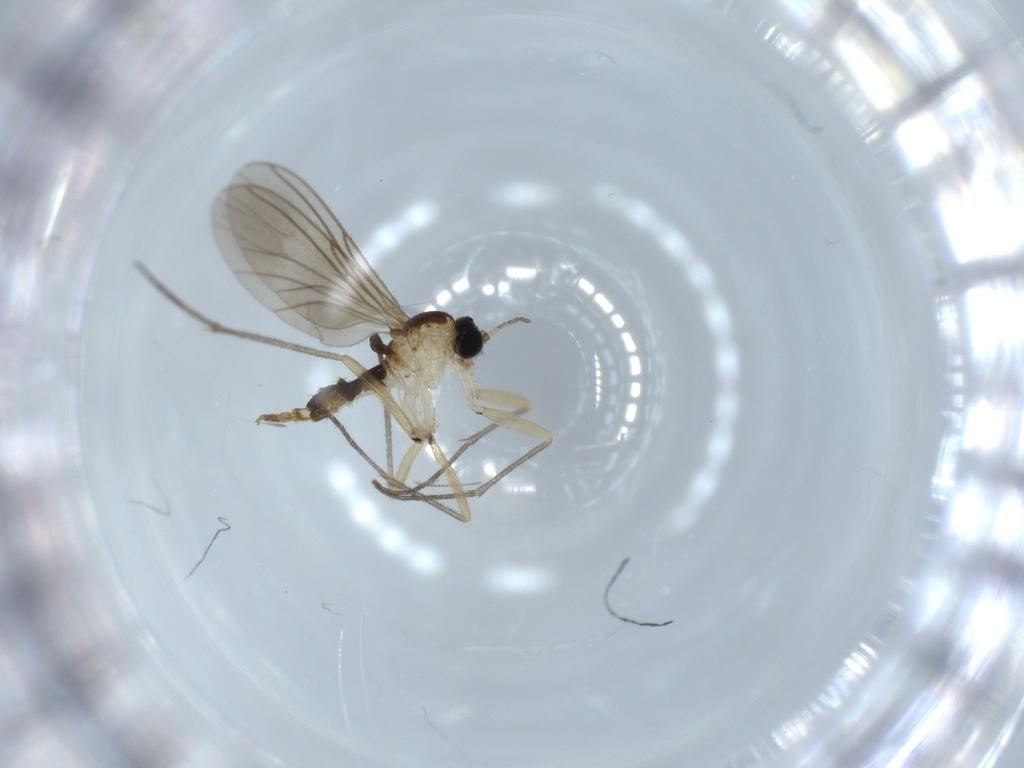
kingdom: Animalia
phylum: Arthropoda
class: Insecta
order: Diptera
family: Sciaridae
